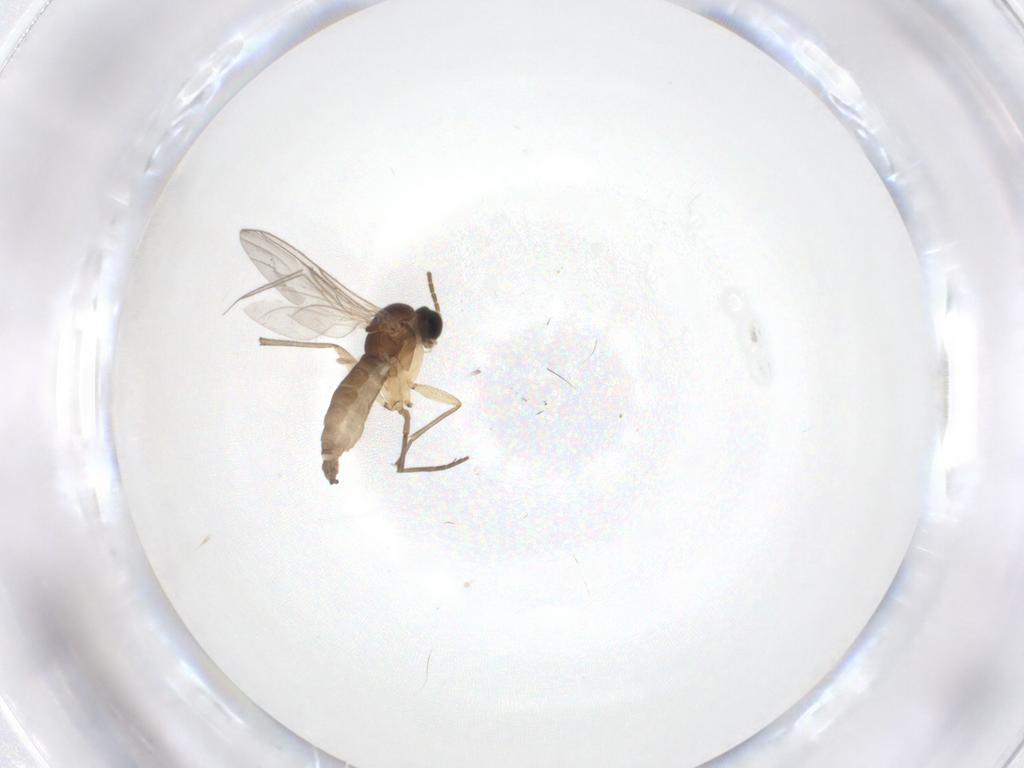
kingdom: Animalia
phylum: Arthropoda
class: Insecta
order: Diptera
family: Sciaridae
